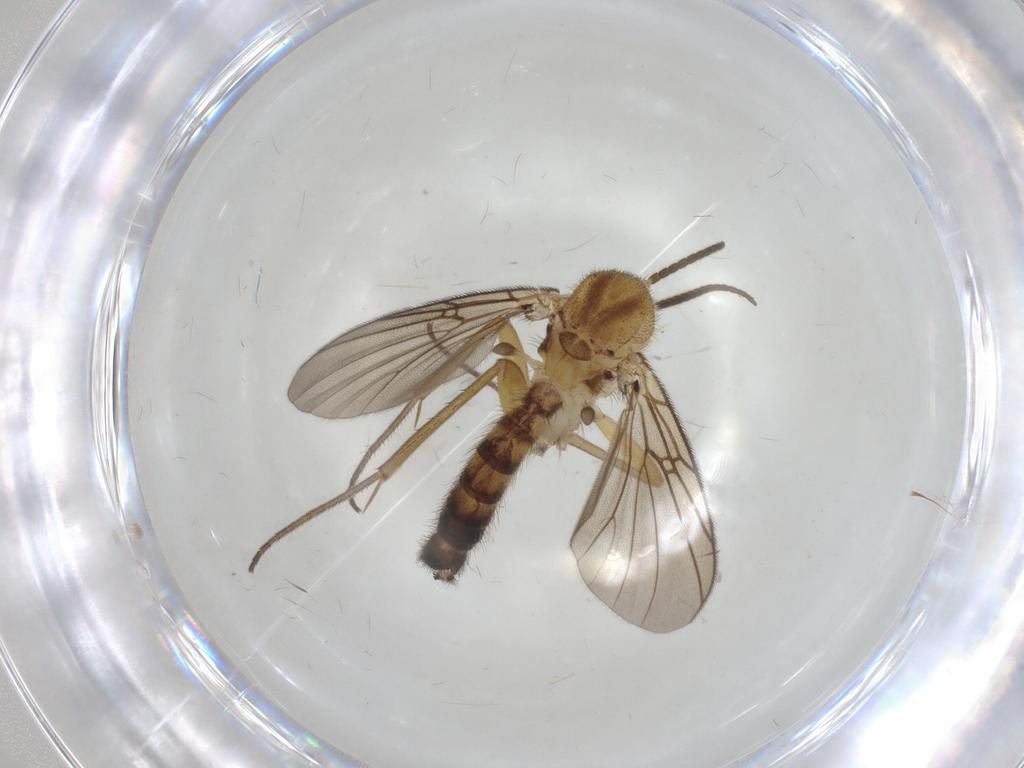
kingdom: Animalia
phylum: Arthropoda
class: Insecta
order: Diptera
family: Mycetophilidae
